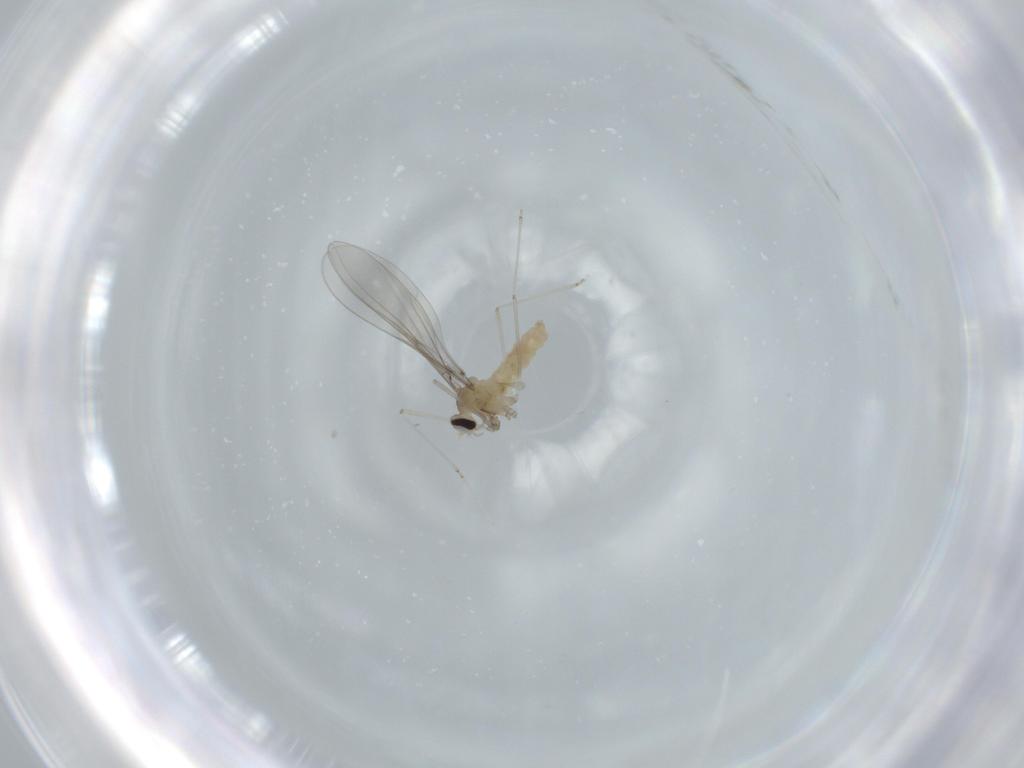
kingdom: Animalia
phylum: Arthropoda
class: Insecta
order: Diptera
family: Cecidomyiidae
